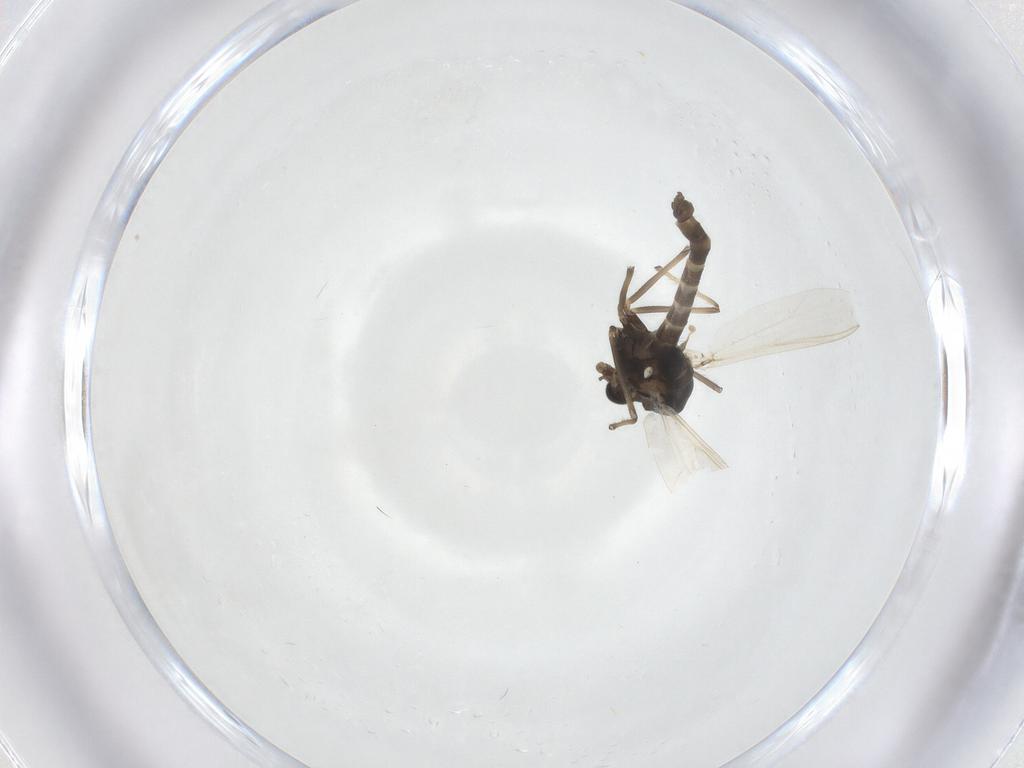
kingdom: Animalia
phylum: Arthropoda
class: Insecta
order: Diptera
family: Chironomidae
